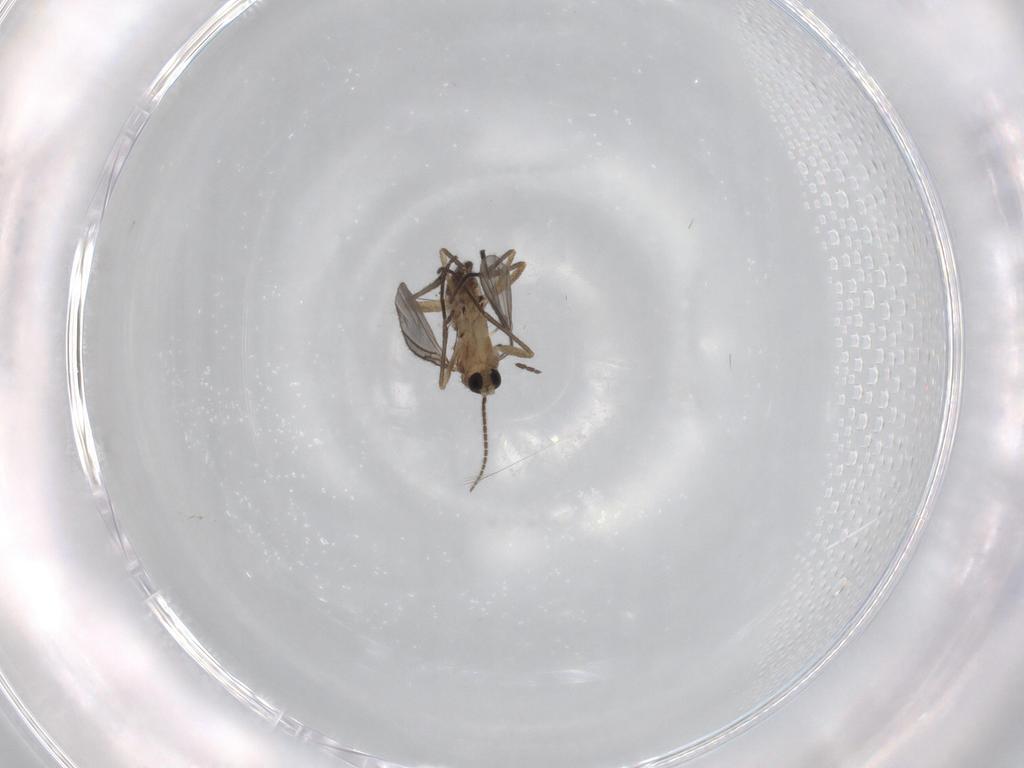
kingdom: Animalia
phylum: Arthropoda
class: Insecta
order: Diptera
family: Sciaridae
